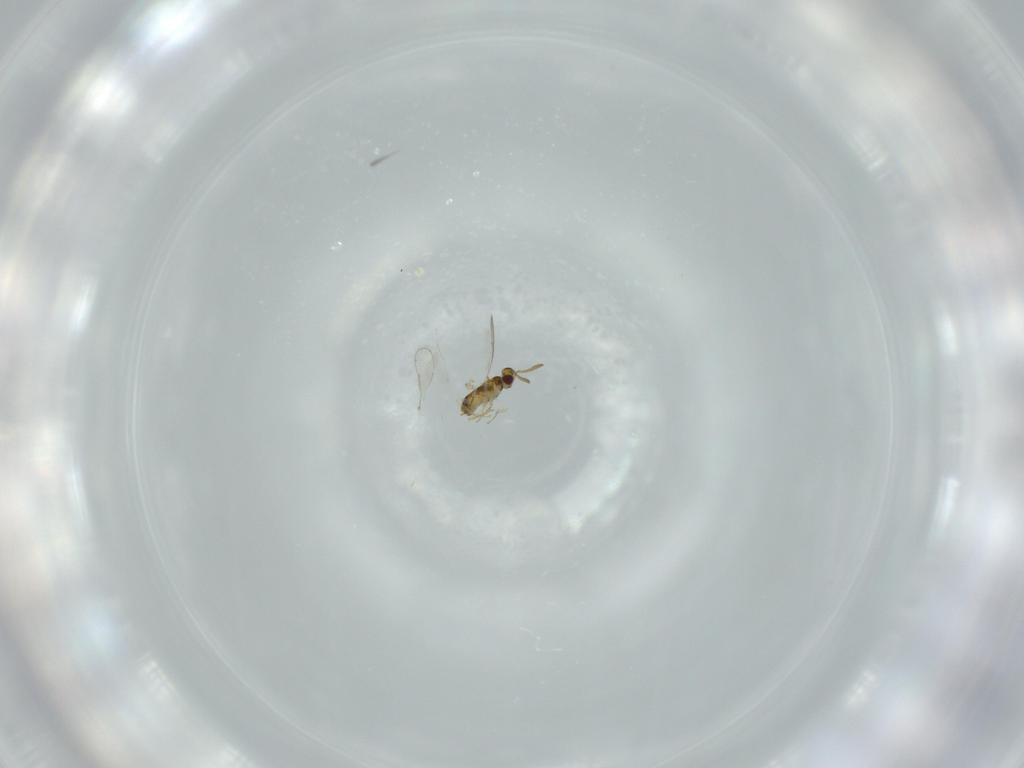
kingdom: Animalia
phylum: Arthropoda
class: Insecta
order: Hymenoptera
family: Aphelinidae
